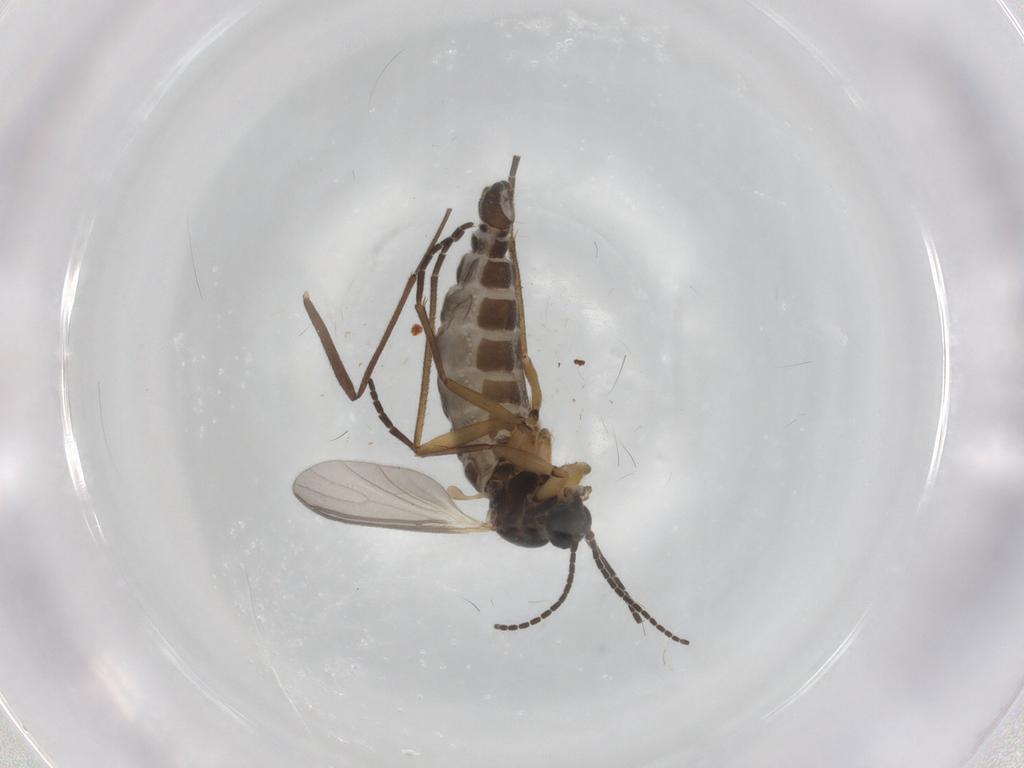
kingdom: Animalia
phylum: Arthropoda
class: Insecta
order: Diptera
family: Sciaridae
